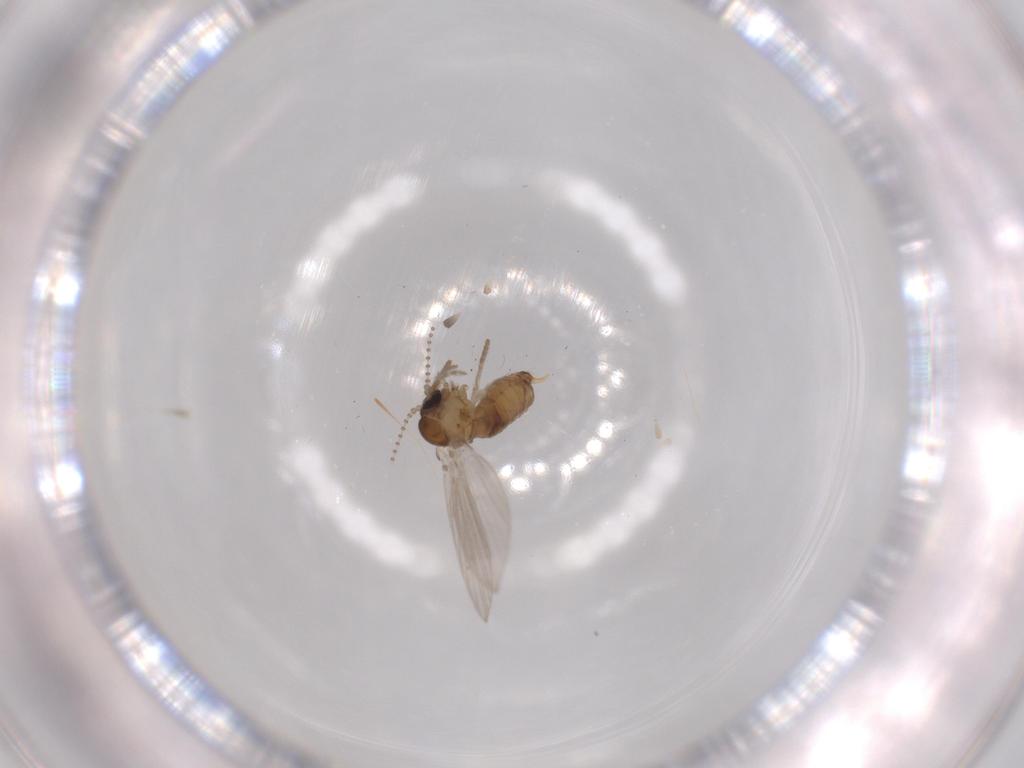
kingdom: Animalia
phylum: Arthropoda
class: Insecta
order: Diptera
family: Psychodidae
